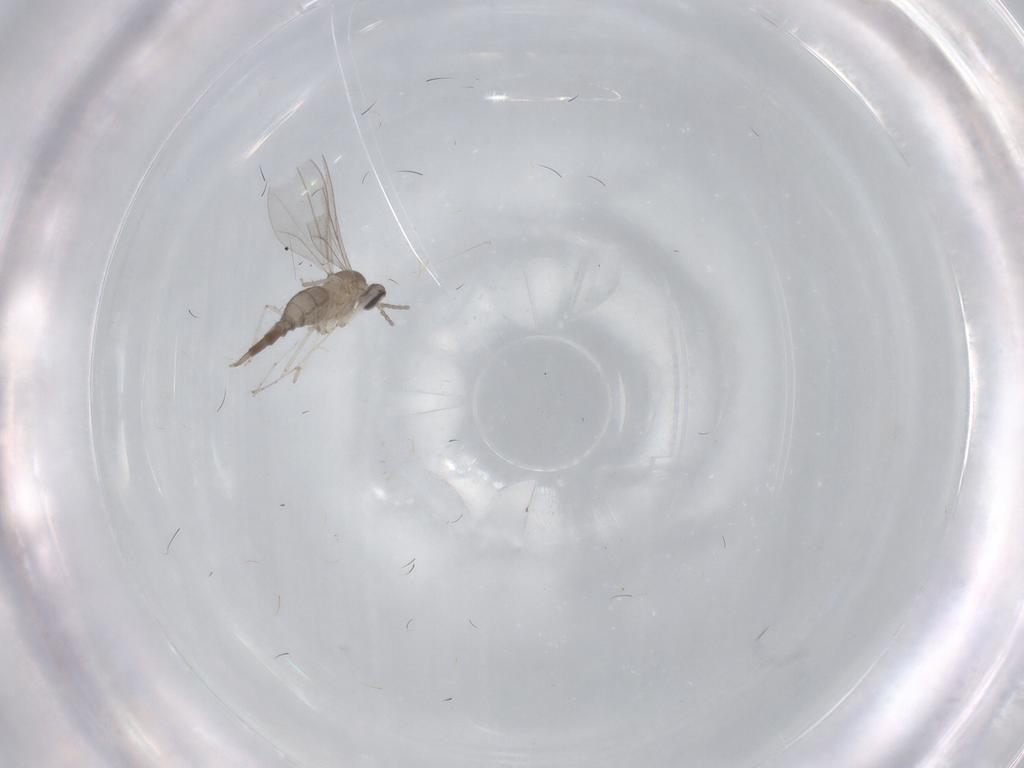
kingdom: Animalia
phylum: Arthropoda
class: Insecta
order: Diptera
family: Cecidomyiidae
